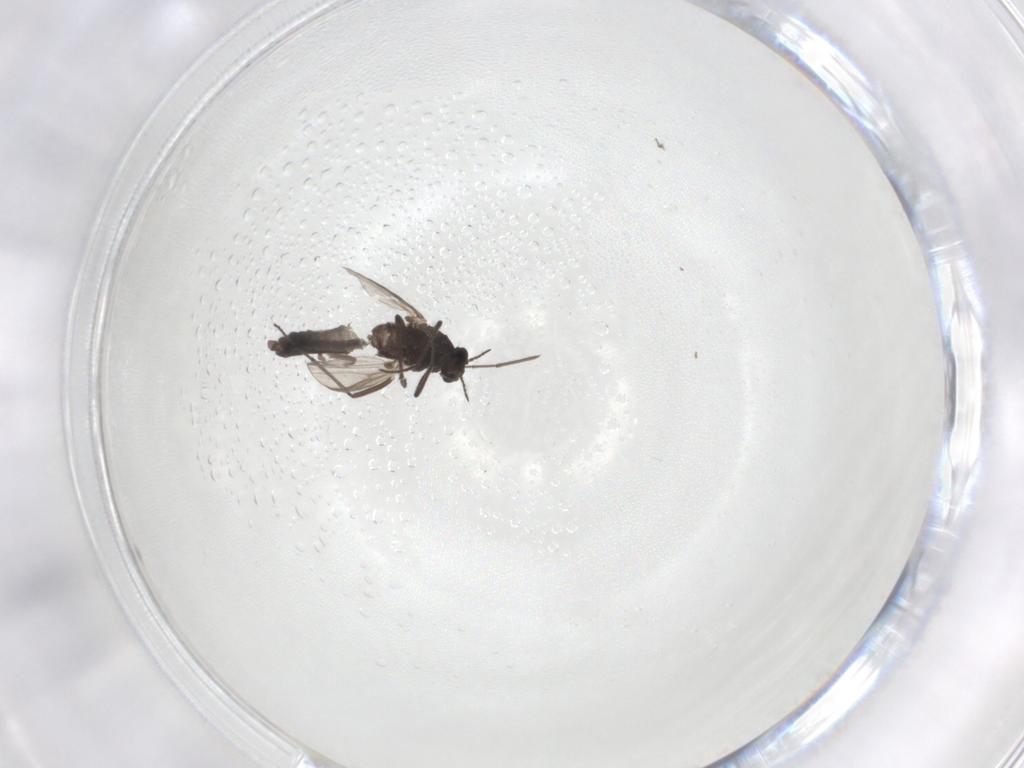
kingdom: Animalia
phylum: Arthropoda
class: Insecta
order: Diptera
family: Chironomidae
